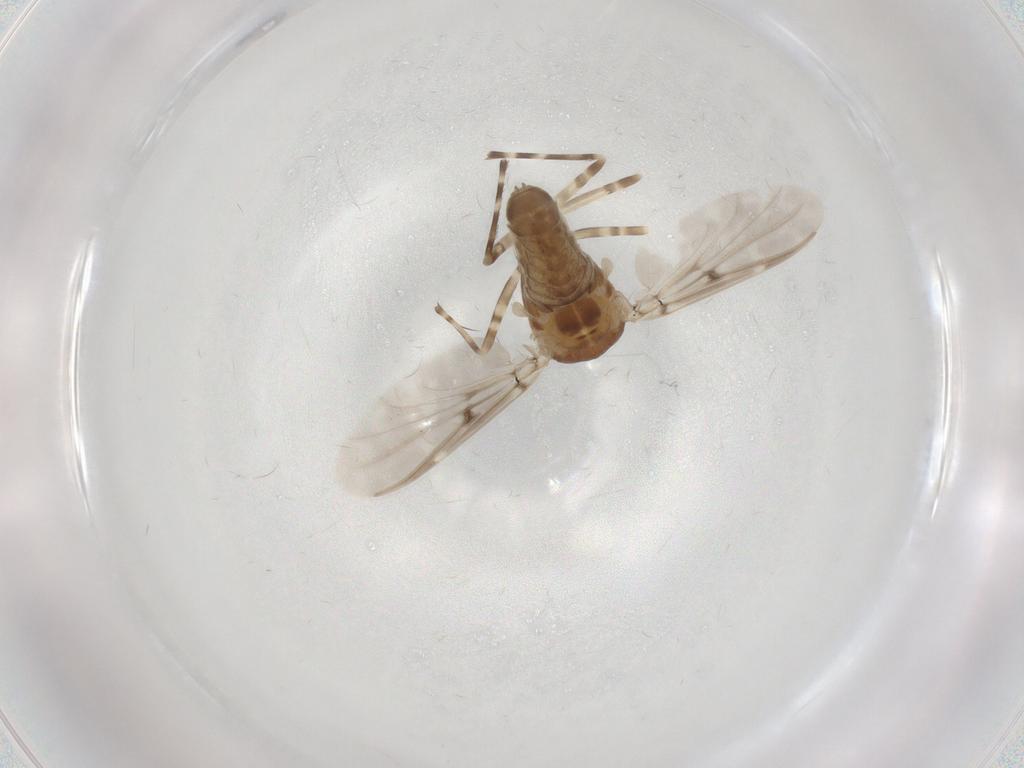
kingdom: Animalia
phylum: Arthropoda
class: Insecta
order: Diptera
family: Chironomidae
